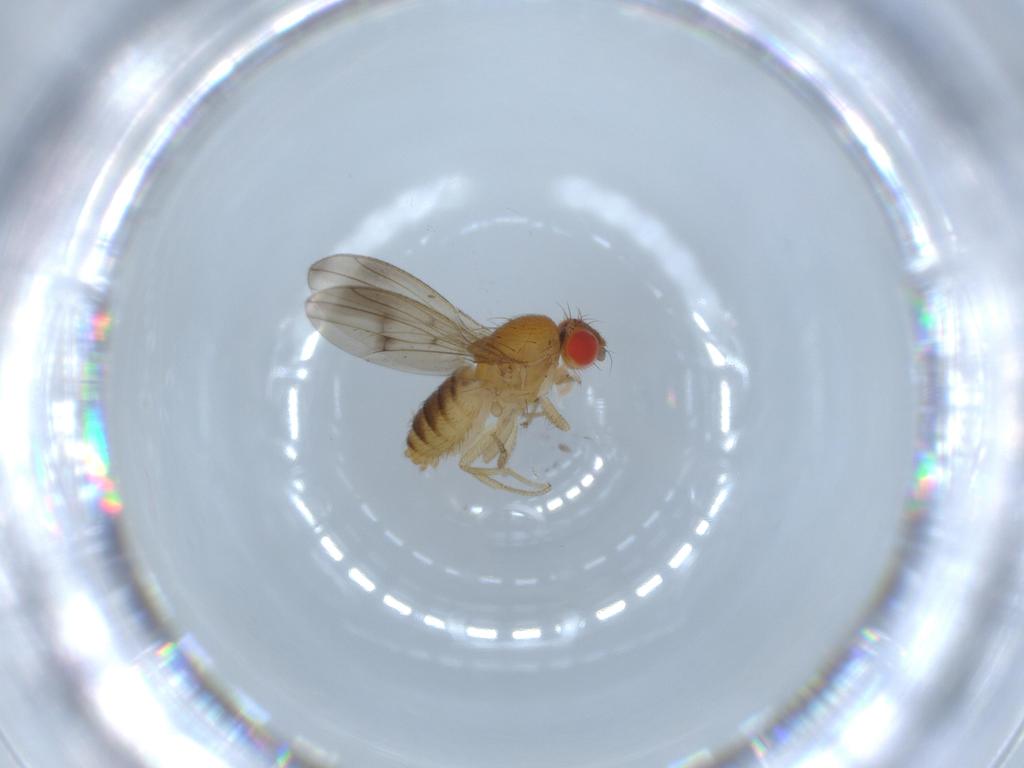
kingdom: Animalia
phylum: Arthropoda
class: Insecta
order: Diptera
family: Drosophilidae
